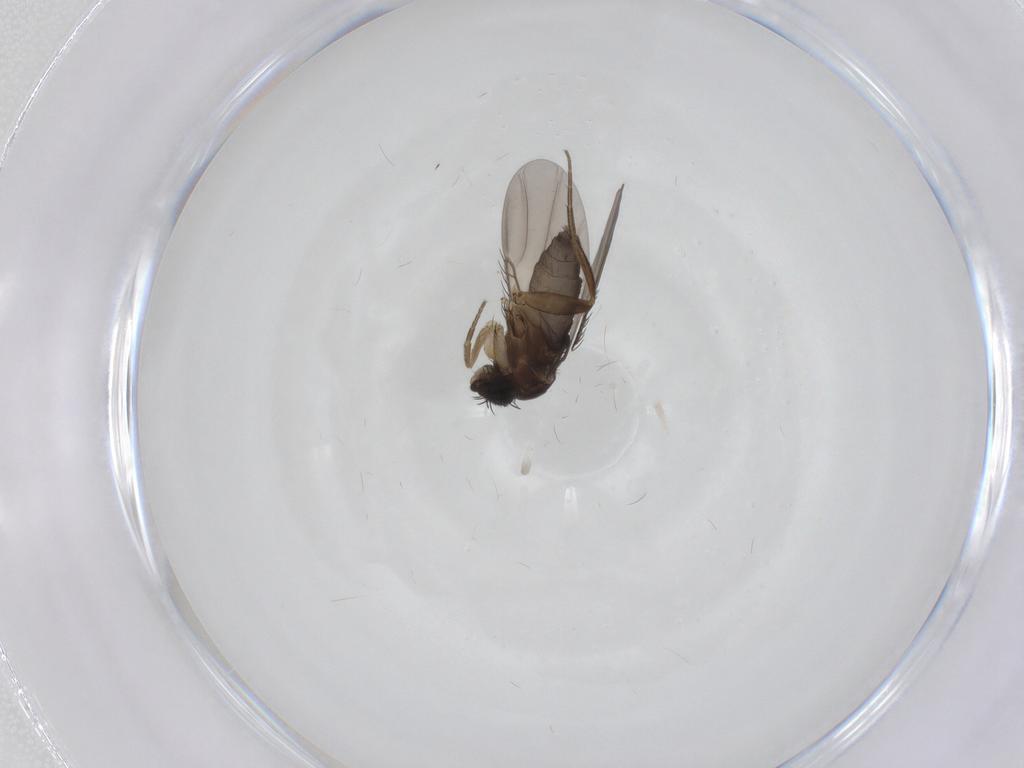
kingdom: Animalia
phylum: Arthropoda
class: Insecta
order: Diptera
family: Phoridae
